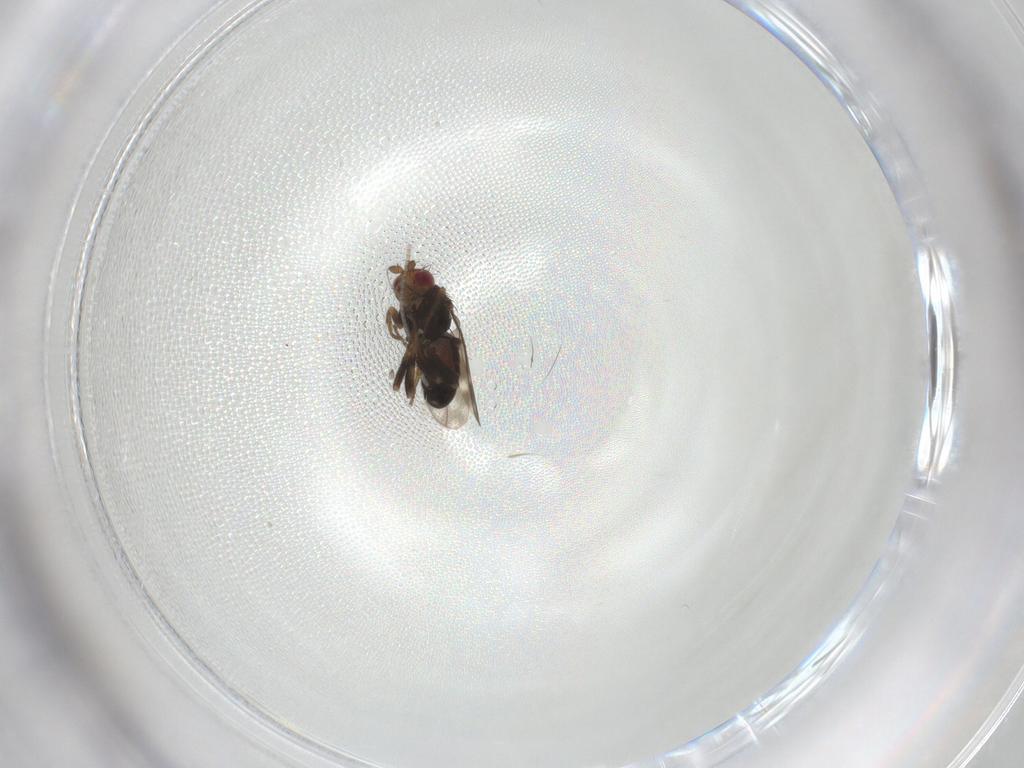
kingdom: Animalia
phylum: Arthropoda
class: Insecta
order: Diptera
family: Sphaeroceridae
